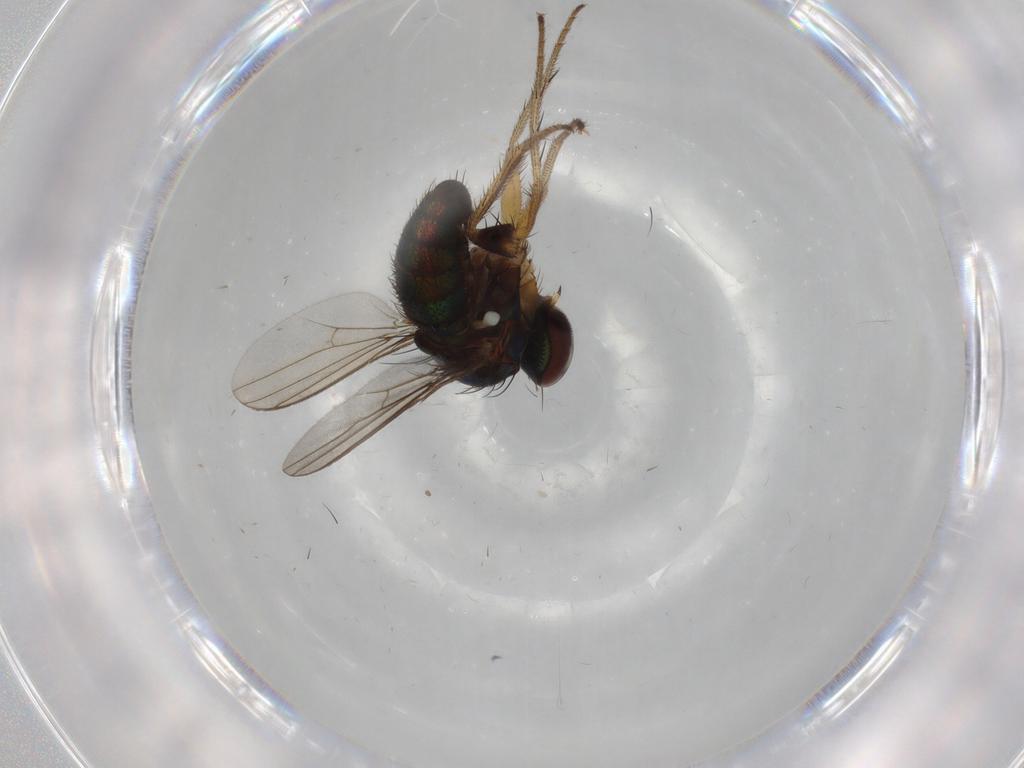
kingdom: Animalia
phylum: Arthropoda
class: Insecta
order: Diptera
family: Dolichopodidae
